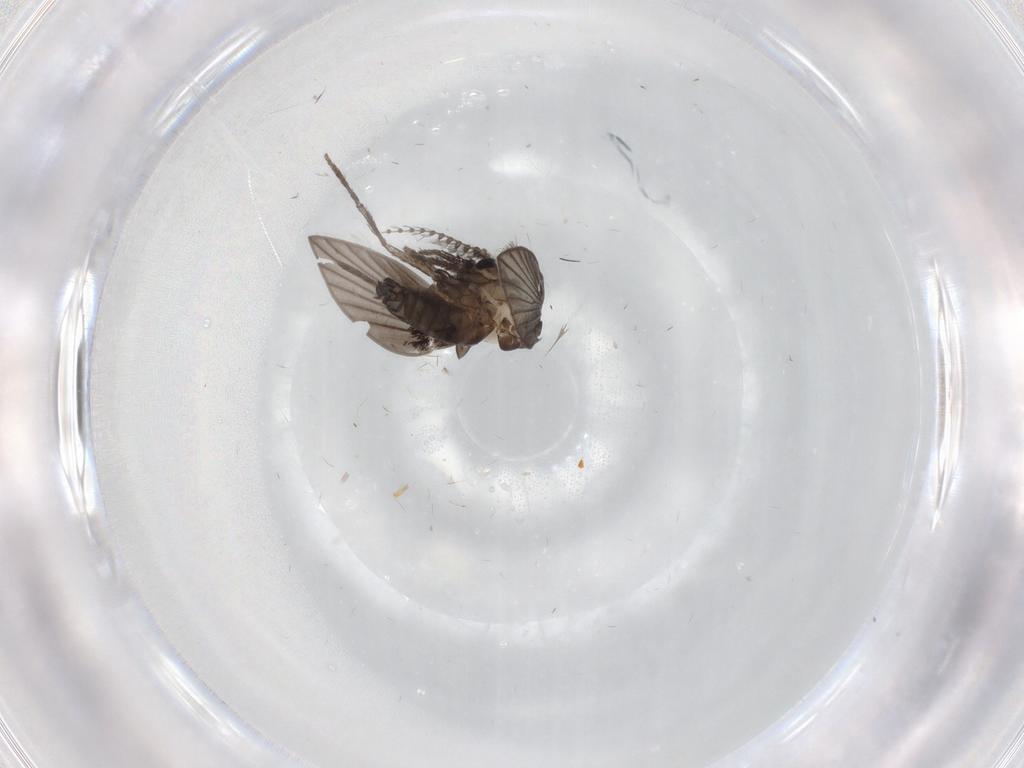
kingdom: Animalia
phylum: Arthropoda
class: Insecta
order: Diptera
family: Psychodidae
